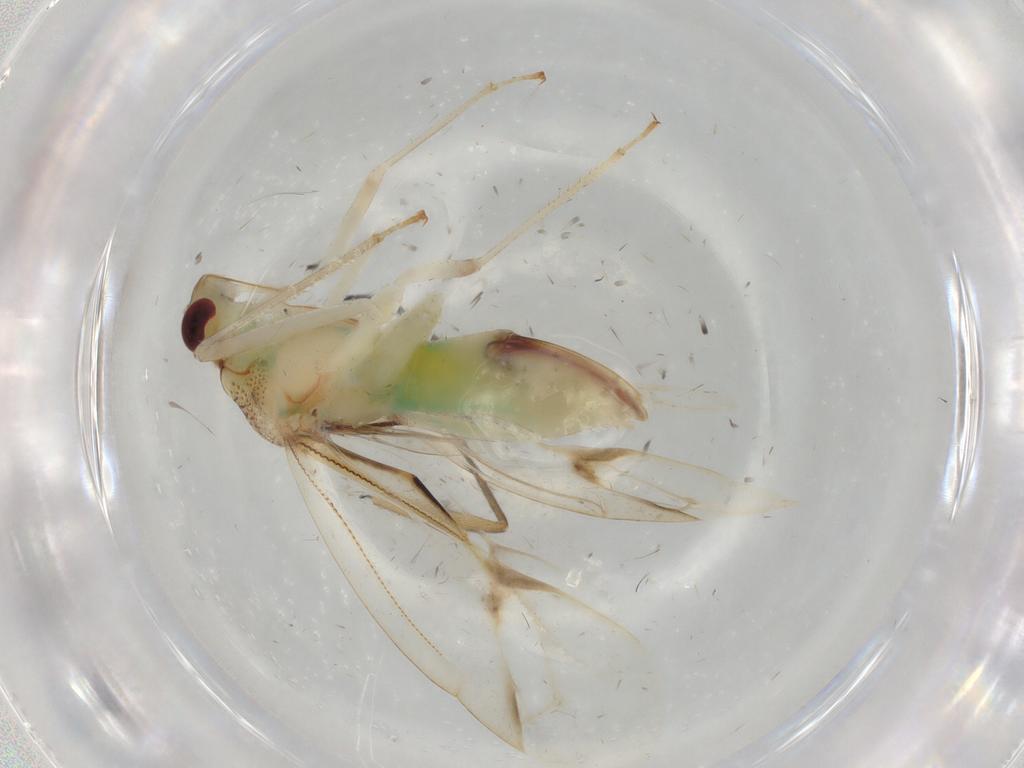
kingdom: Animalia
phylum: Arthropoda
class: Insecta
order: Hemiptera
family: Miridae
